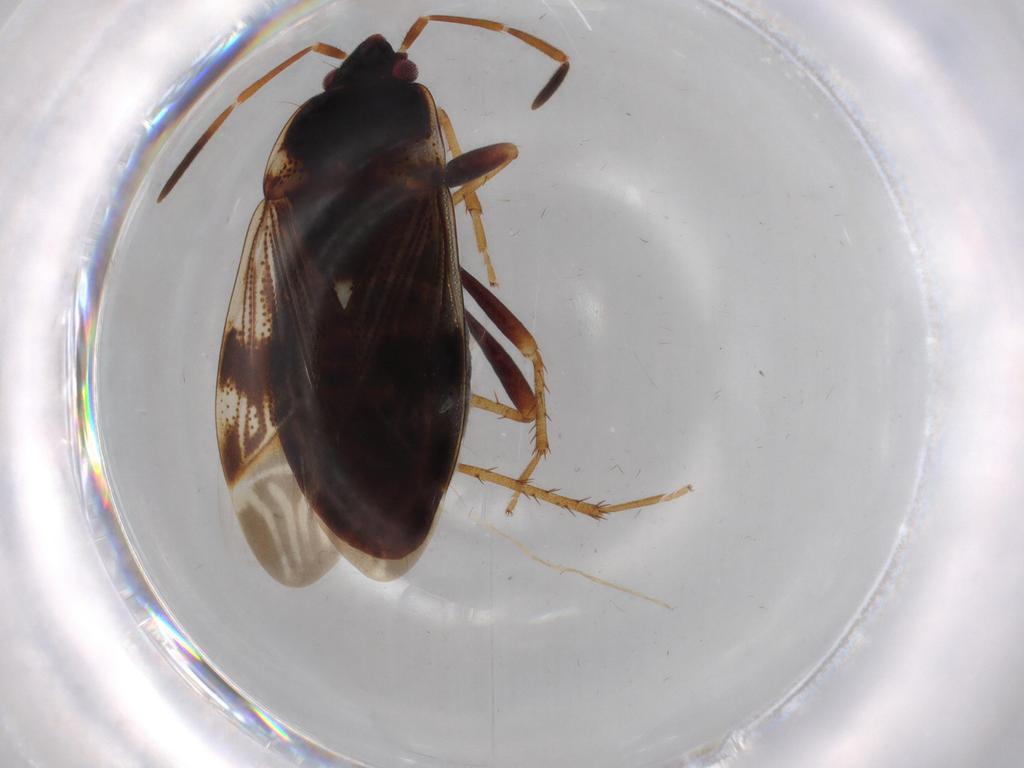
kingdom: Animalia
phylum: Arthropoda
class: Insecta
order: Hemiptera
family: Rhyparochromidae
